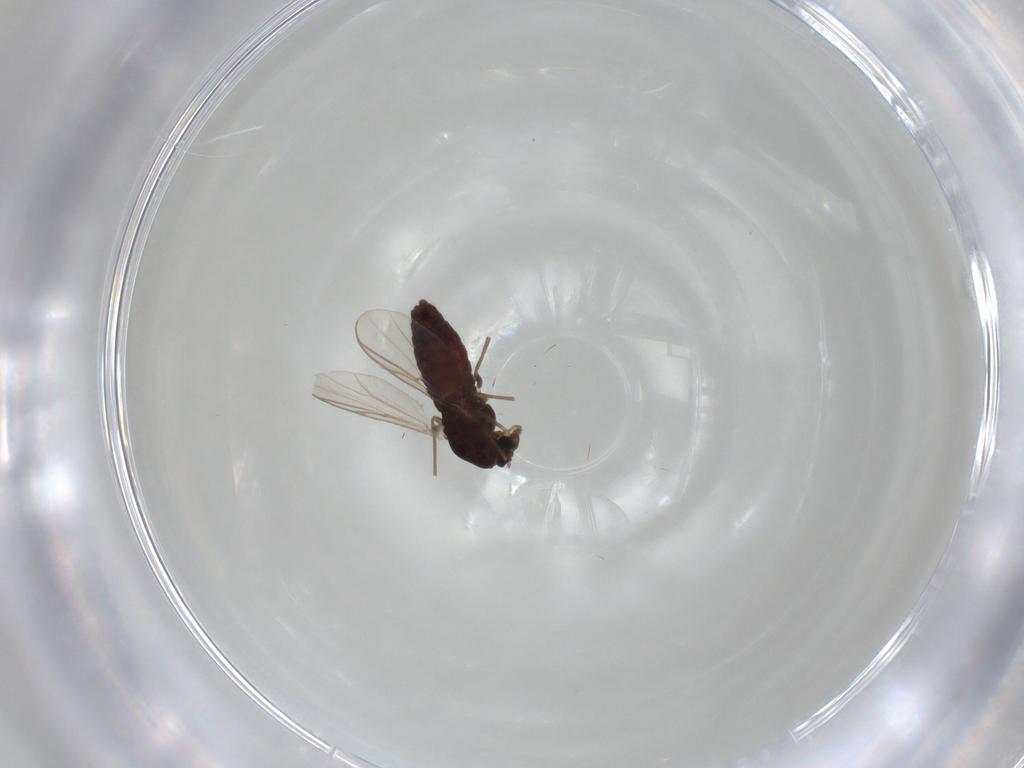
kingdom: Animalia
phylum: Arthropoda
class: Insecta
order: Diptera
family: Chironomidae
